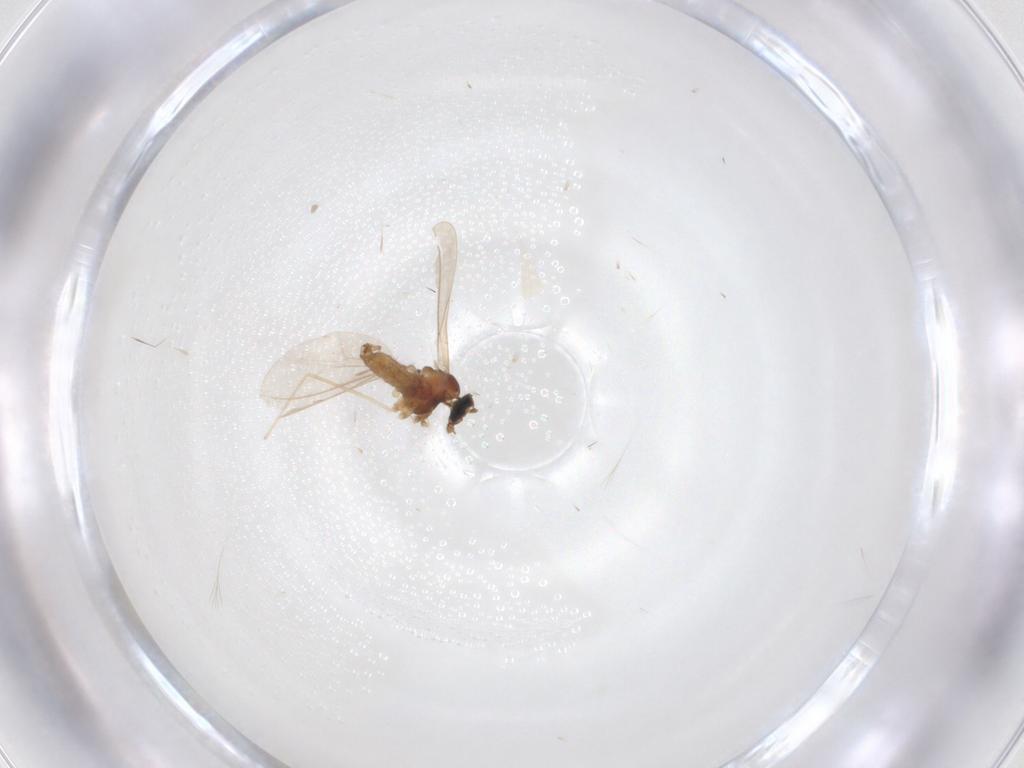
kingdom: Animalia
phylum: Arthropoda
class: Insecta
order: Diptera
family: Cecidomyiidae
